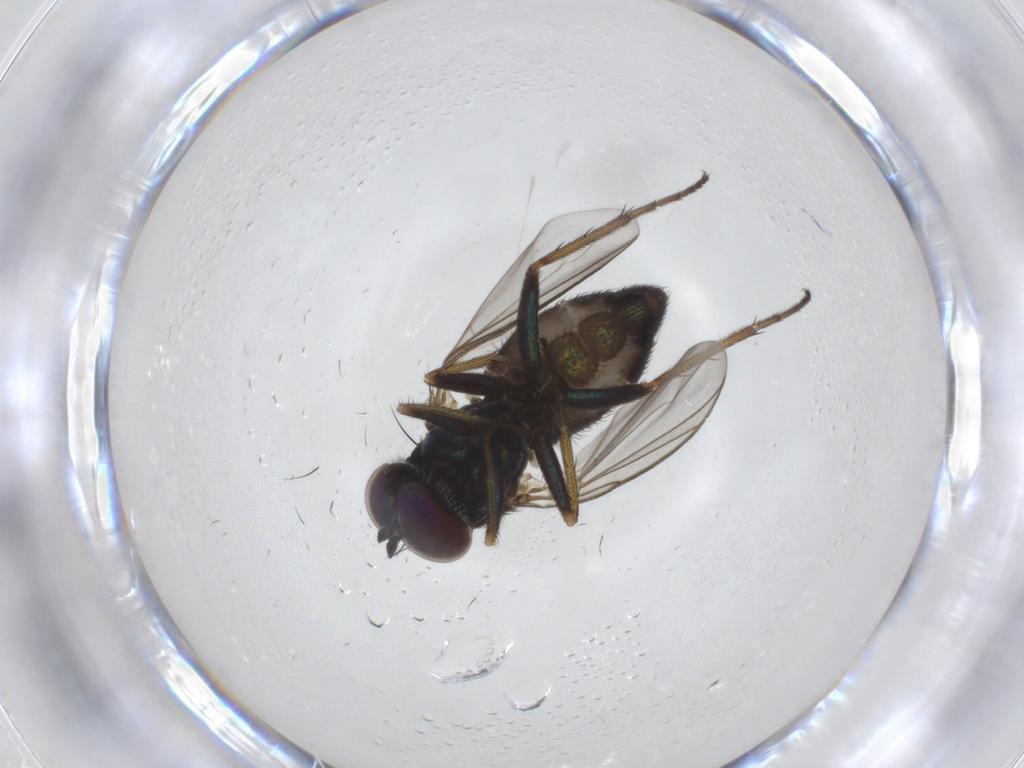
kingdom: Animalia
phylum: Arthropoda
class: Insecta
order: Diptera
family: Dolichopodidae
